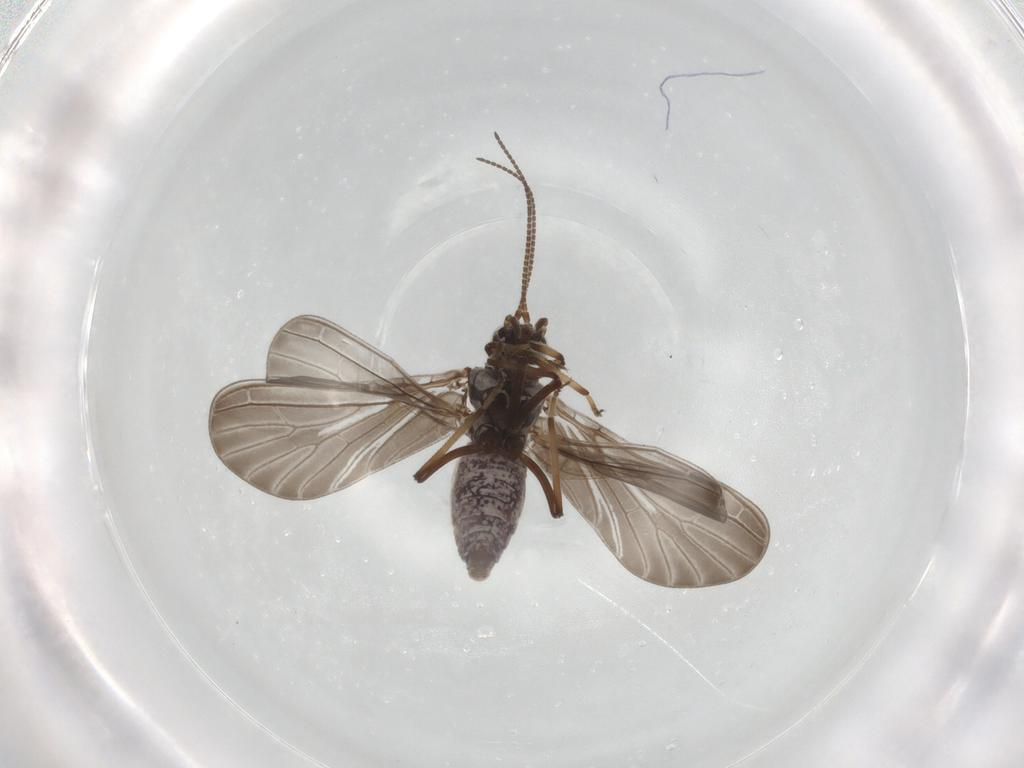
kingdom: Animalia
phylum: Arthropoda
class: Insecta
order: Neuroptera
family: Coniopterygidae
